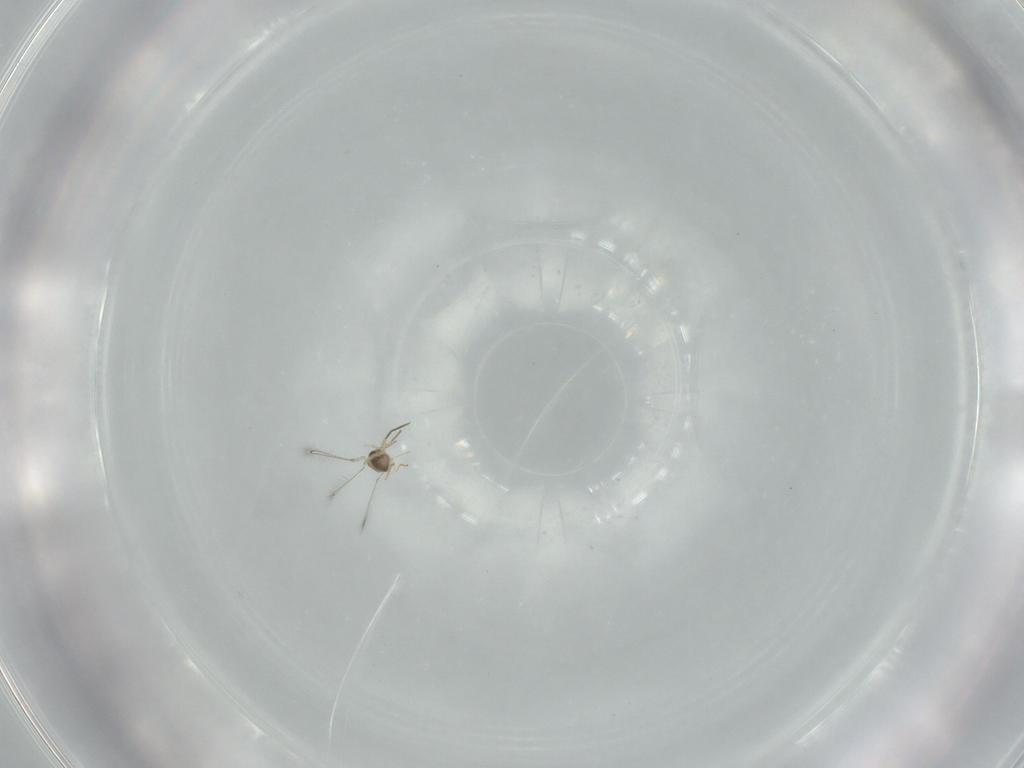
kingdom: Animalia
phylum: Arthropoda
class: Insecta
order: Hymenoptera
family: Mymaridae
